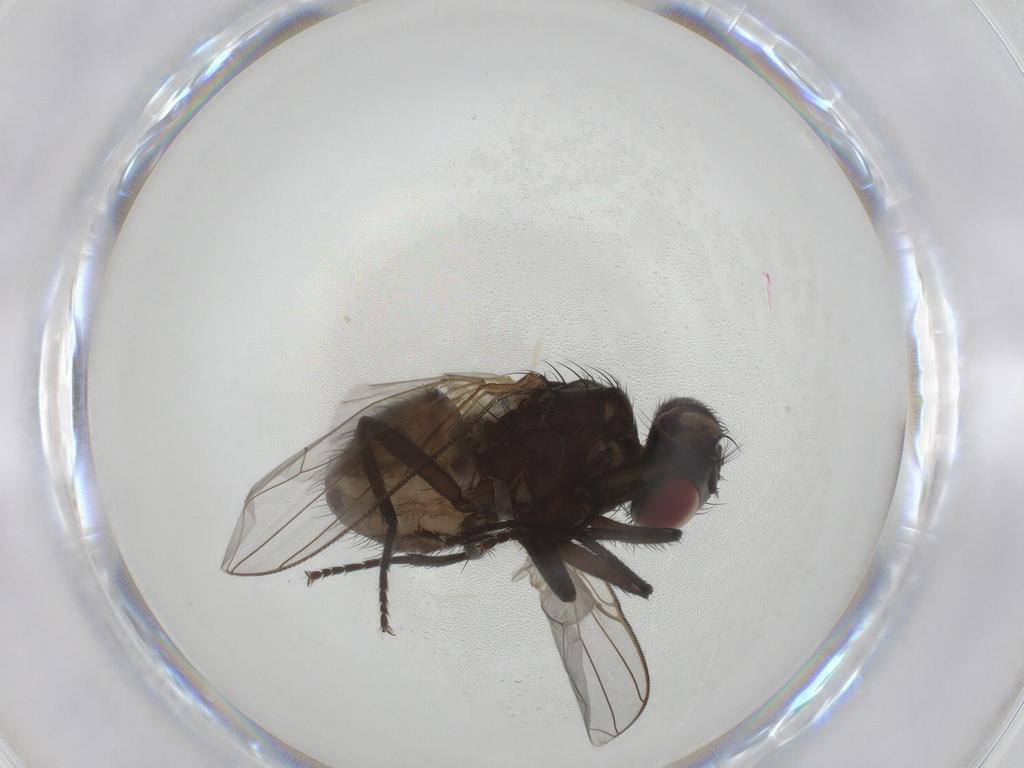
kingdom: Animalia
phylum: Arthropoda
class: Insecta
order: Diptera
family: Muscidae
